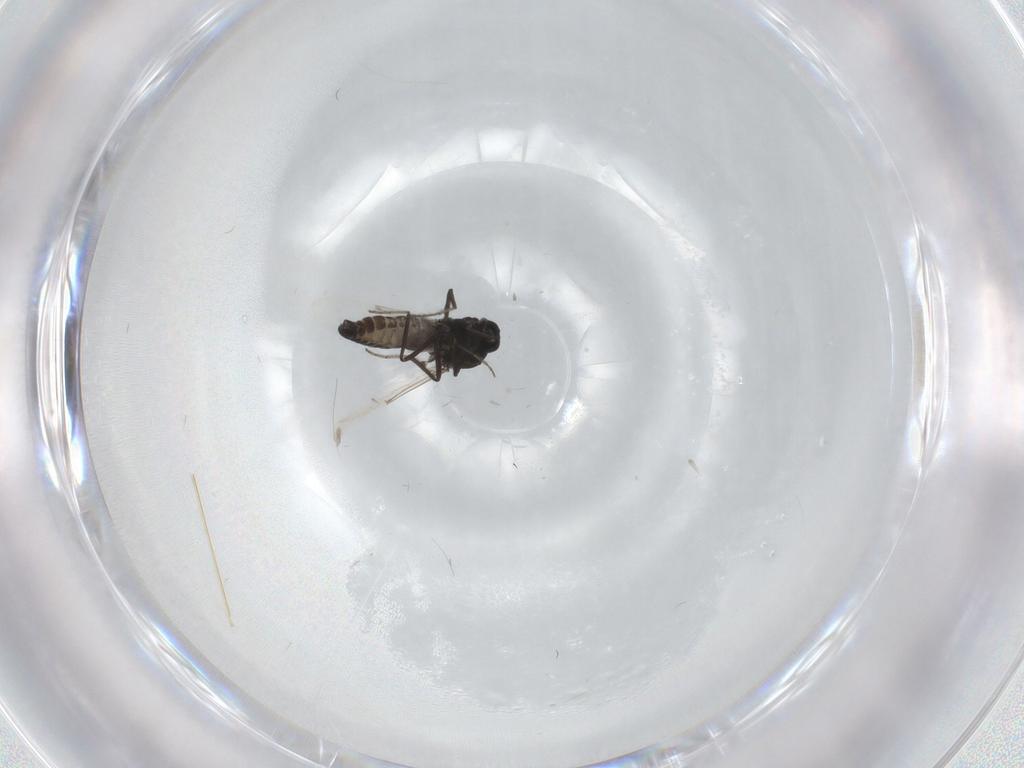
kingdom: Animalia
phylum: Arthropoda
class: Insecta
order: Diptera
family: Ceratopogonidae
